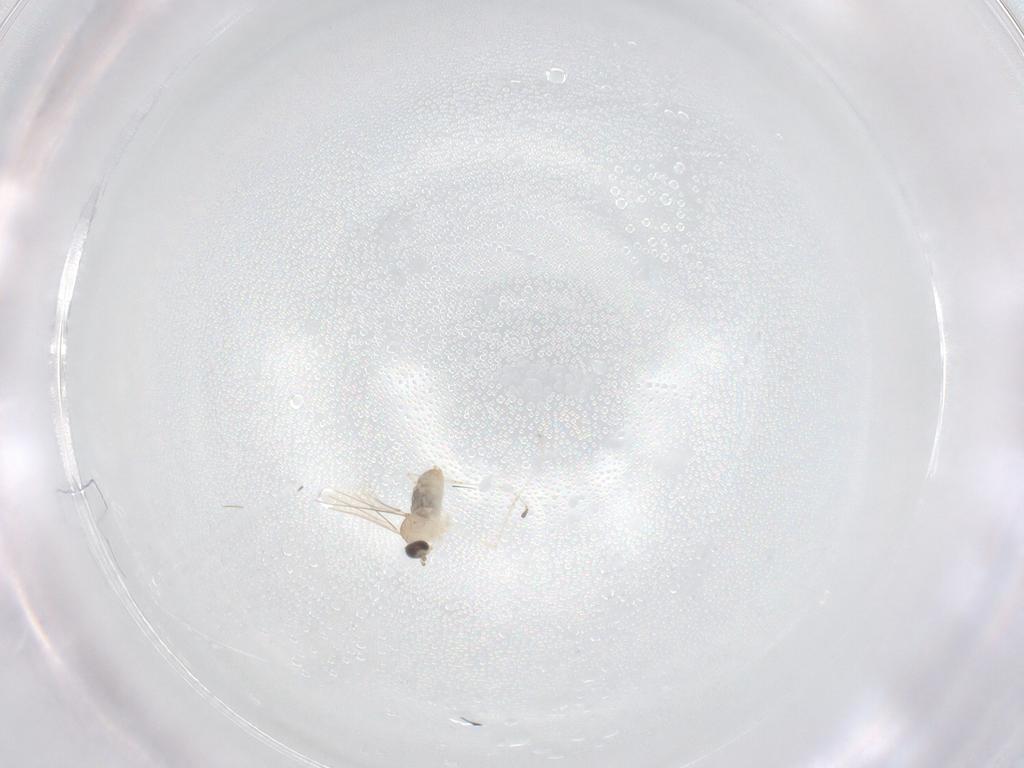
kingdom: Animalia
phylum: Arthropoda
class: Insecta
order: Diptera
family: Cecidomyiidae
